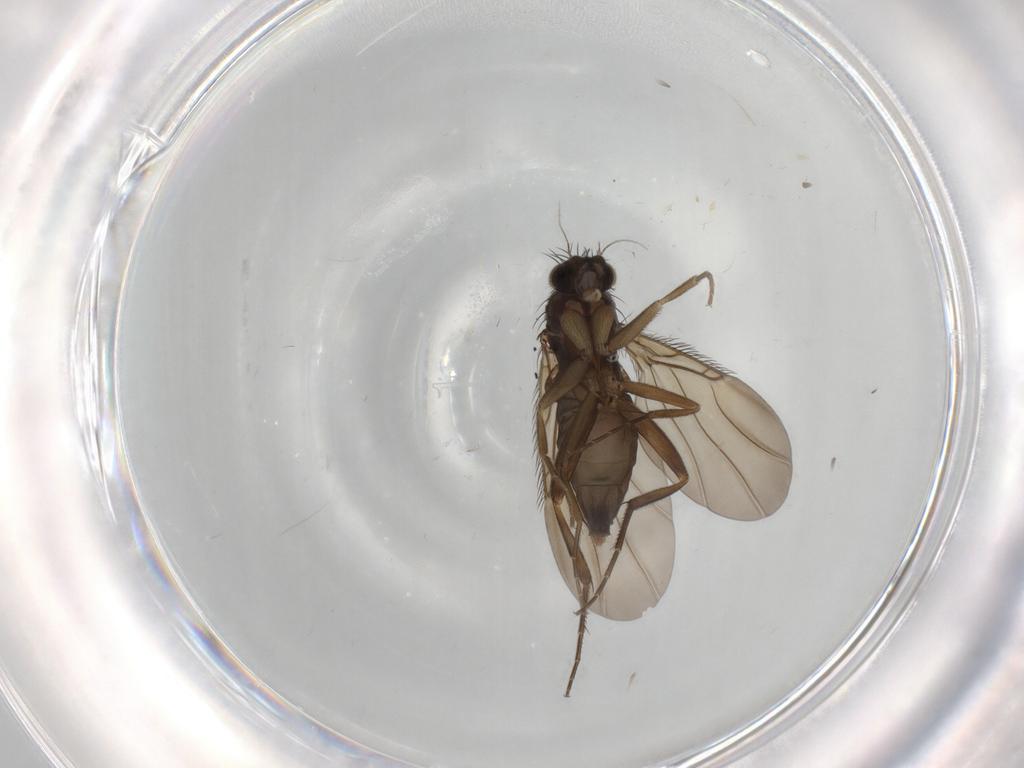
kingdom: Animalia
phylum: Arthropoda
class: Insecta
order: Diptera
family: Phoridae
